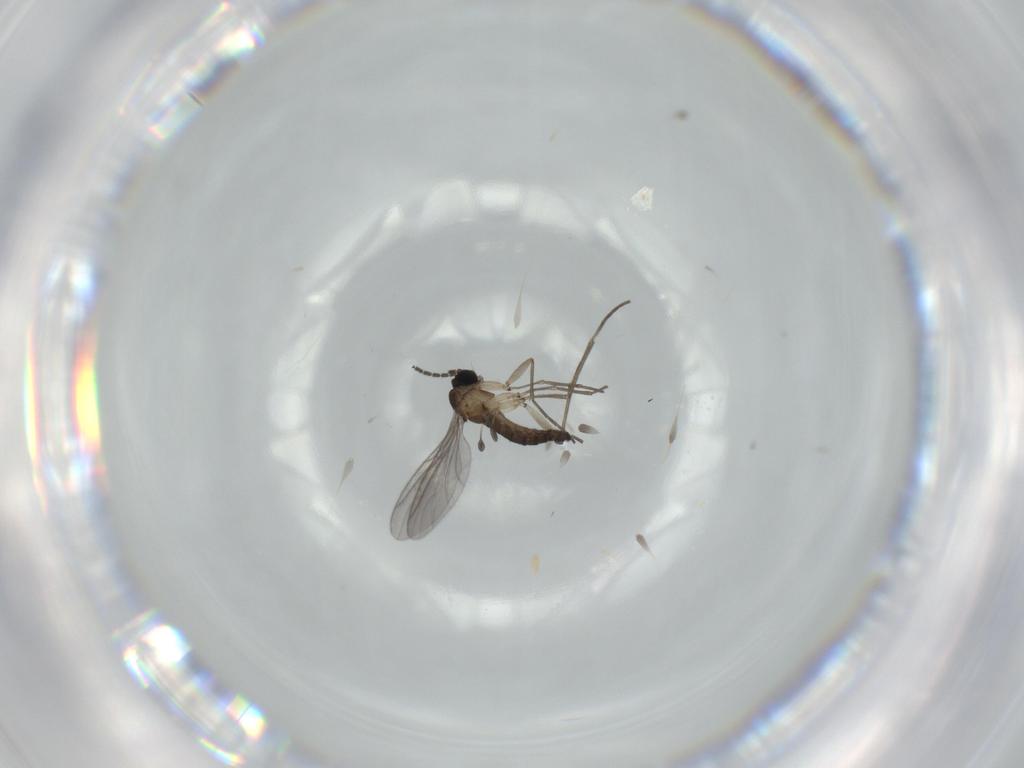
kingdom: Animalia
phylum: Arthropoda
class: Insecta
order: Diptera
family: Sciaridae
